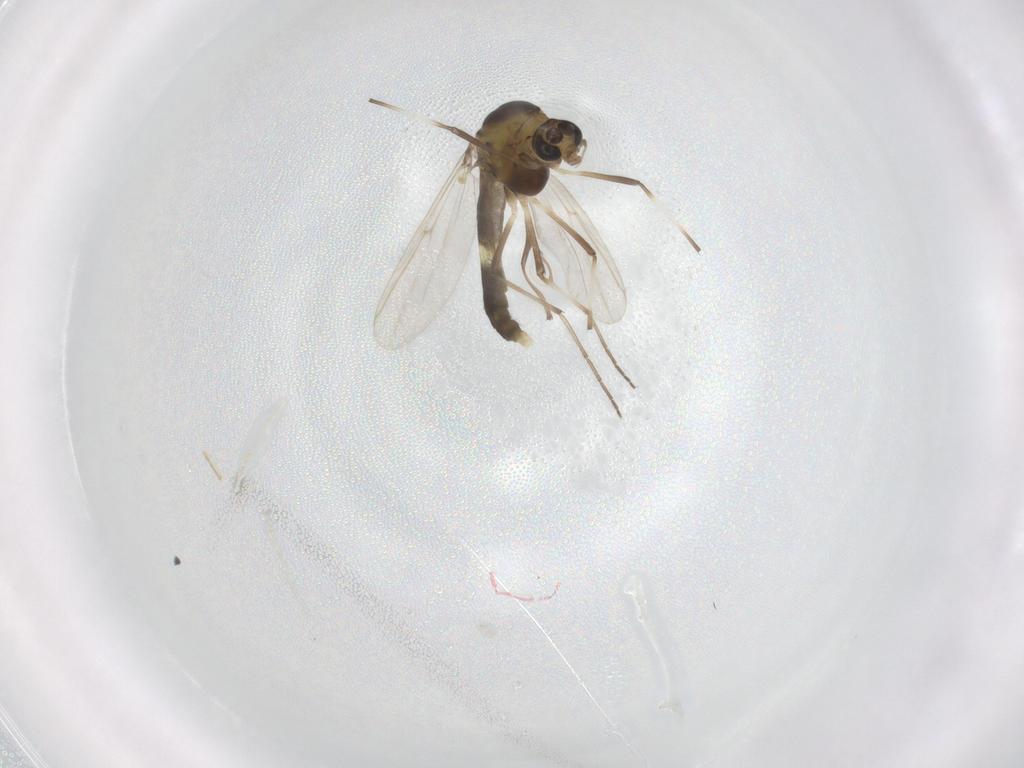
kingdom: Animalia
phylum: Arthropoda
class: Insecta
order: Diptera
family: Chironomidae
